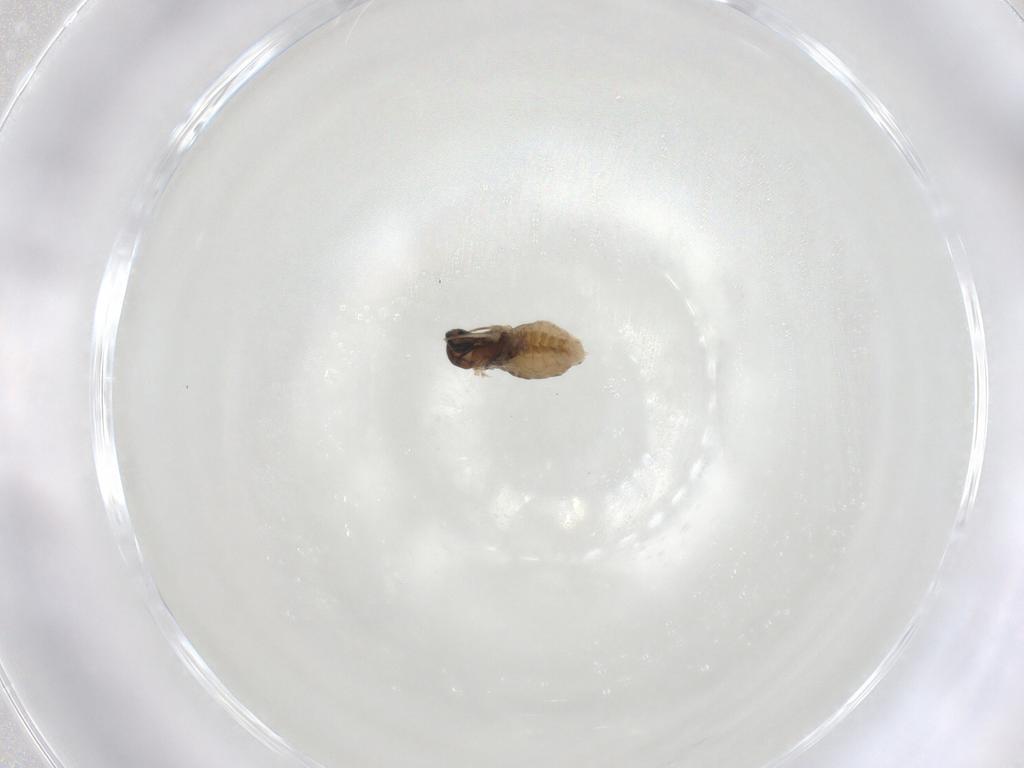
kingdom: Animalia
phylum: Arthropoda
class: Insecta
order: Diptera
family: Cecidomyiidae
